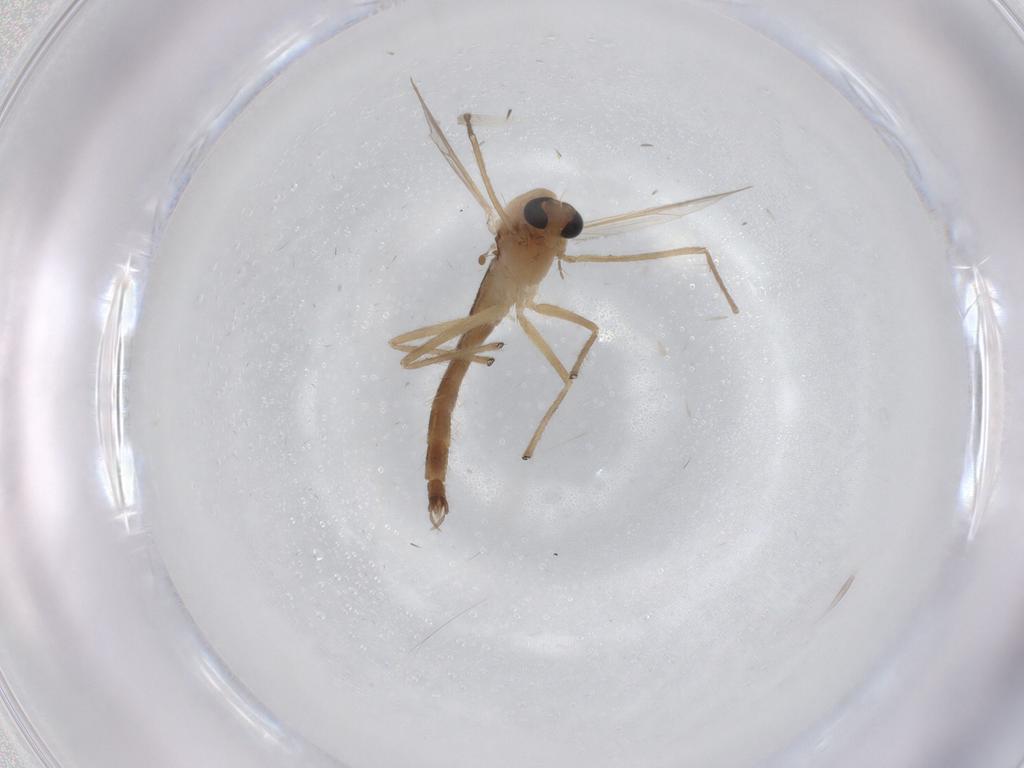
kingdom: Animalia
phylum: Arthropoda
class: Insecta
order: Diptera
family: Chironomidae
